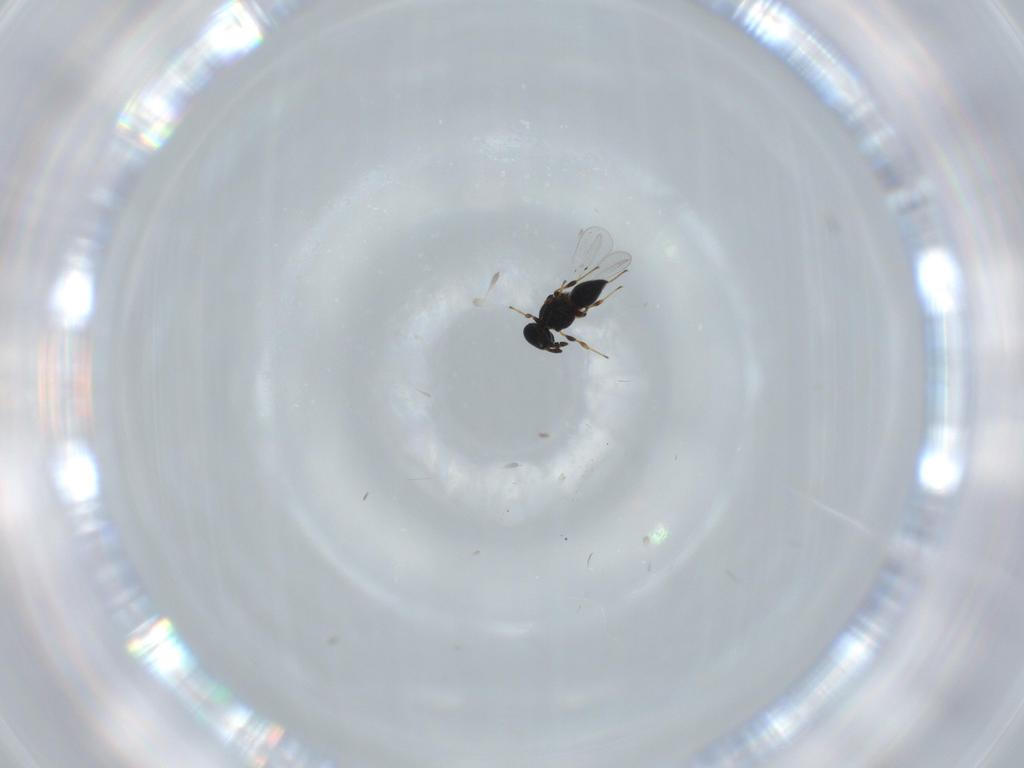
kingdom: Animalia
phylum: Arthropoda
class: Insecta
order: Hymenoptera
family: Platygastridae
